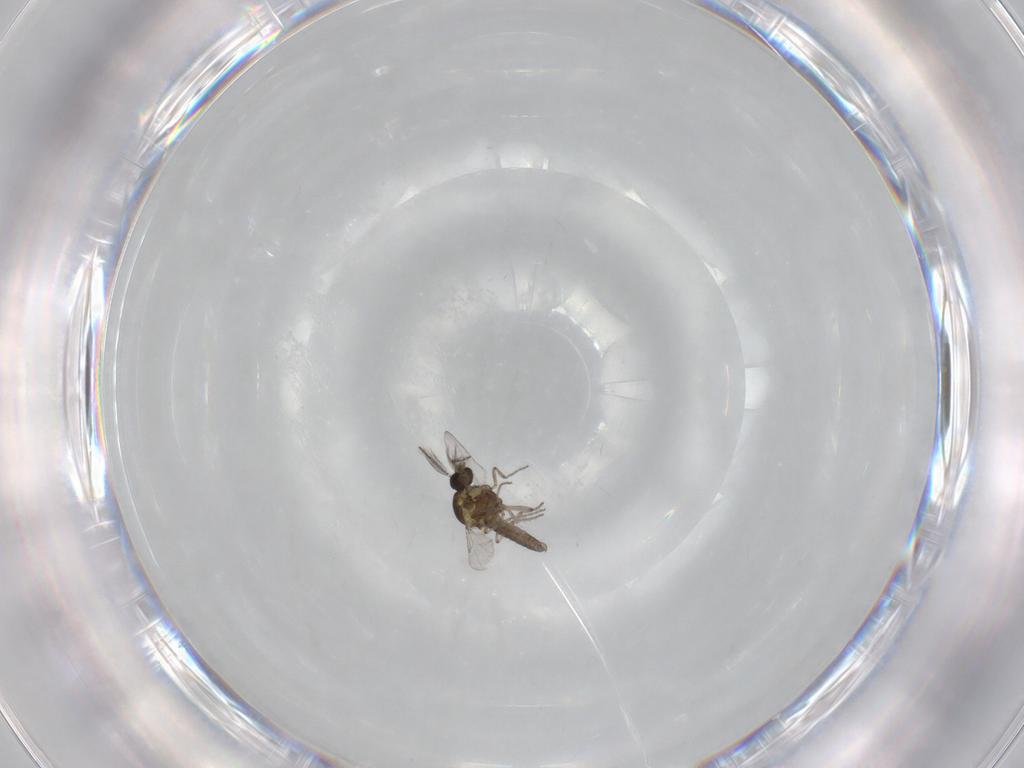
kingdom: Animalia
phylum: Arthropoda
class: Insecta
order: Diptera
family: Ceratopogonidae
